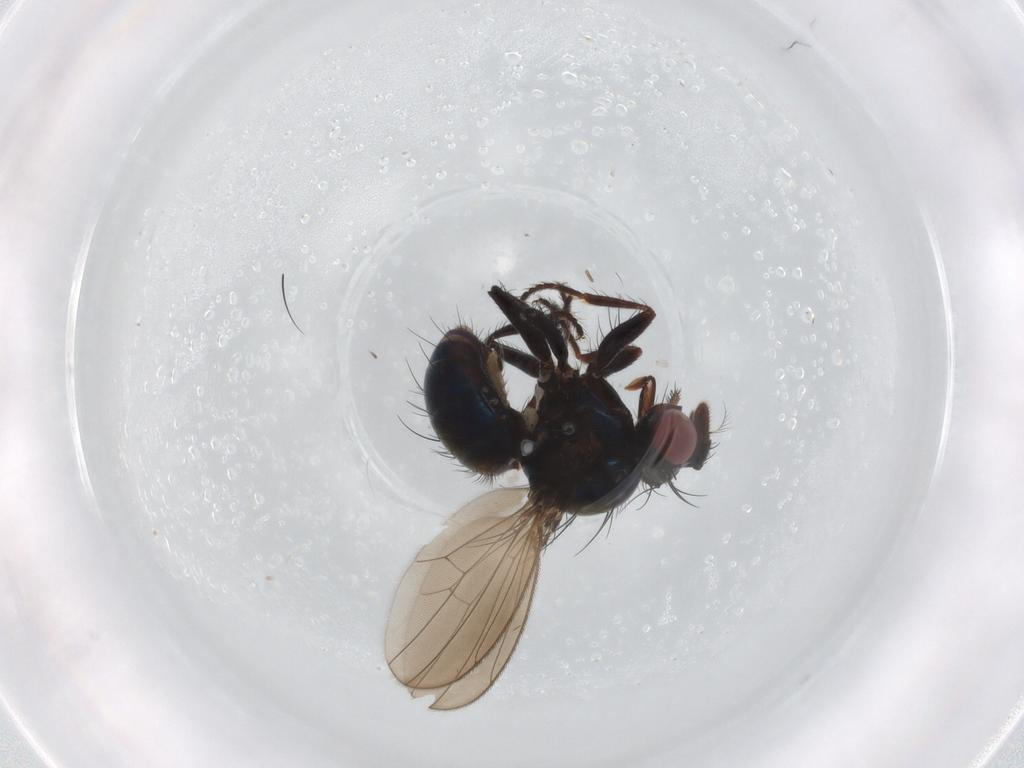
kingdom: Animalia
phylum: Arthropoda
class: Insecta
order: Diptera
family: Ephydridae
